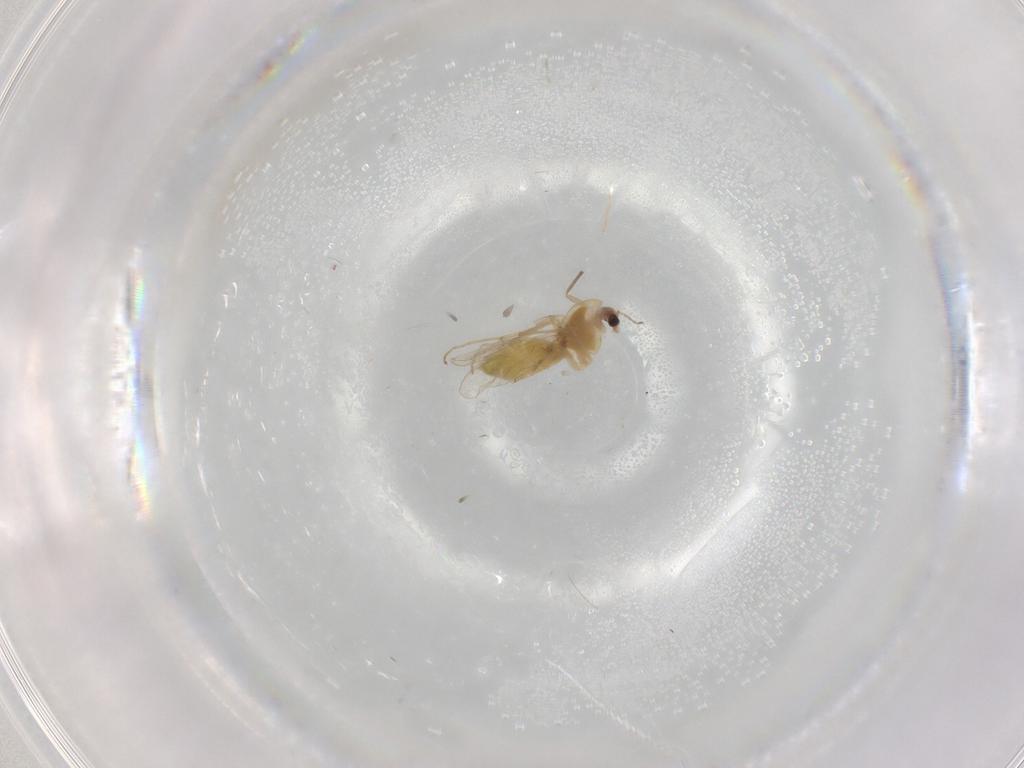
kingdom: Animalia
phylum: Arthropoda
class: Insecta
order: Diptera
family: Chironomidae
